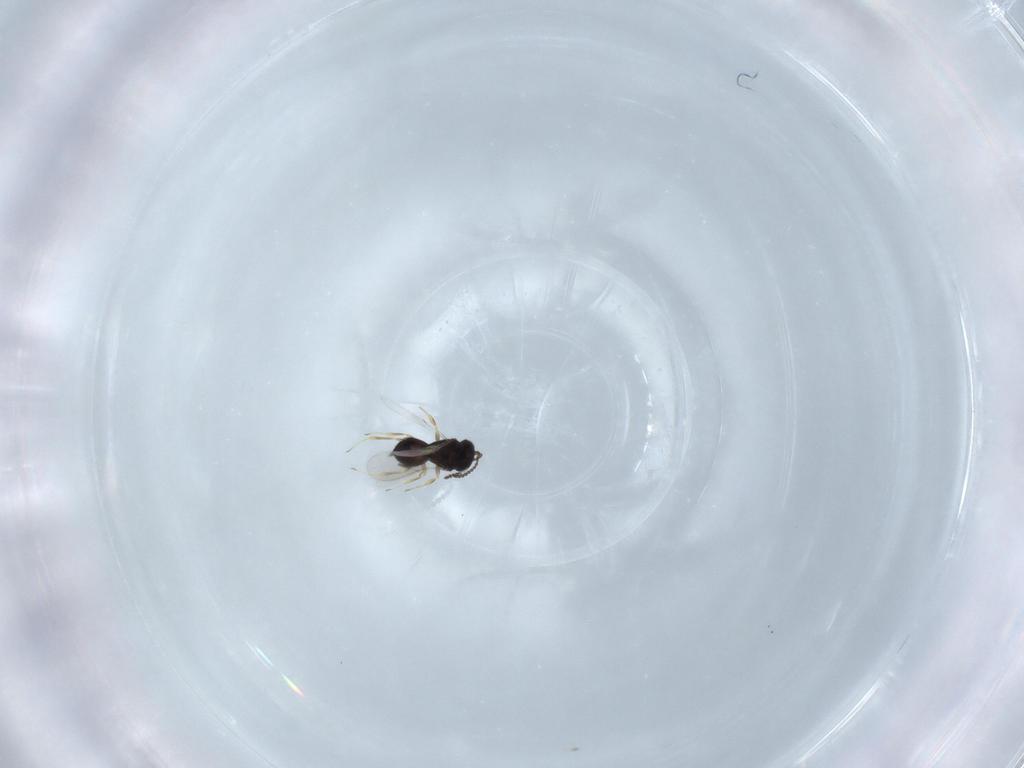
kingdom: Animalia
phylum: Arthropoda
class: Insecta
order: Hymenoptera
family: Scelionidae
